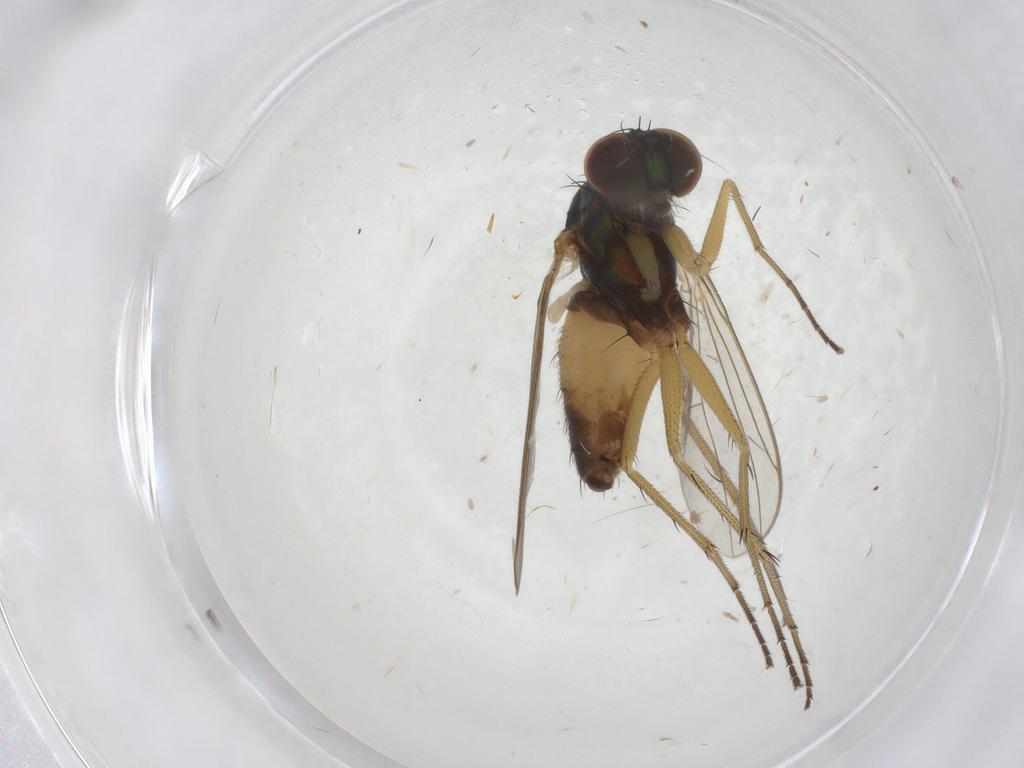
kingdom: Animalia
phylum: Arthropoda
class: Insecta
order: Diptera
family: Ceratopogonidae
